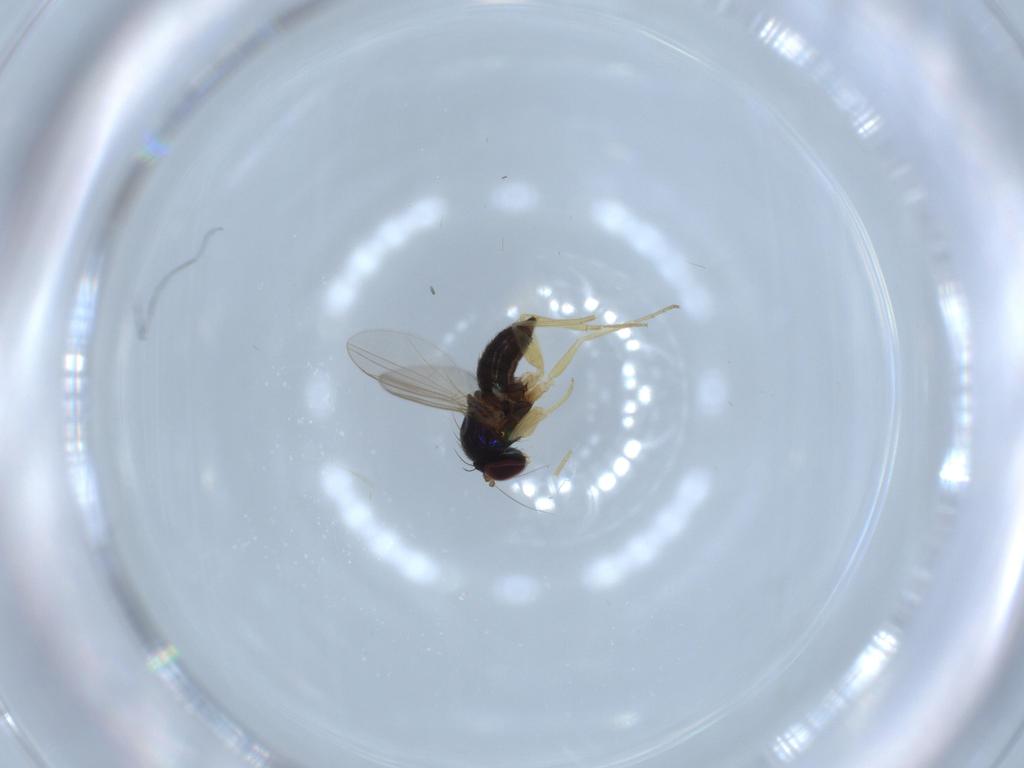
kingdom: Animalia
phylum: Arthropoda
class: Insecta
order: Diptera
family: Dolichopodidae
